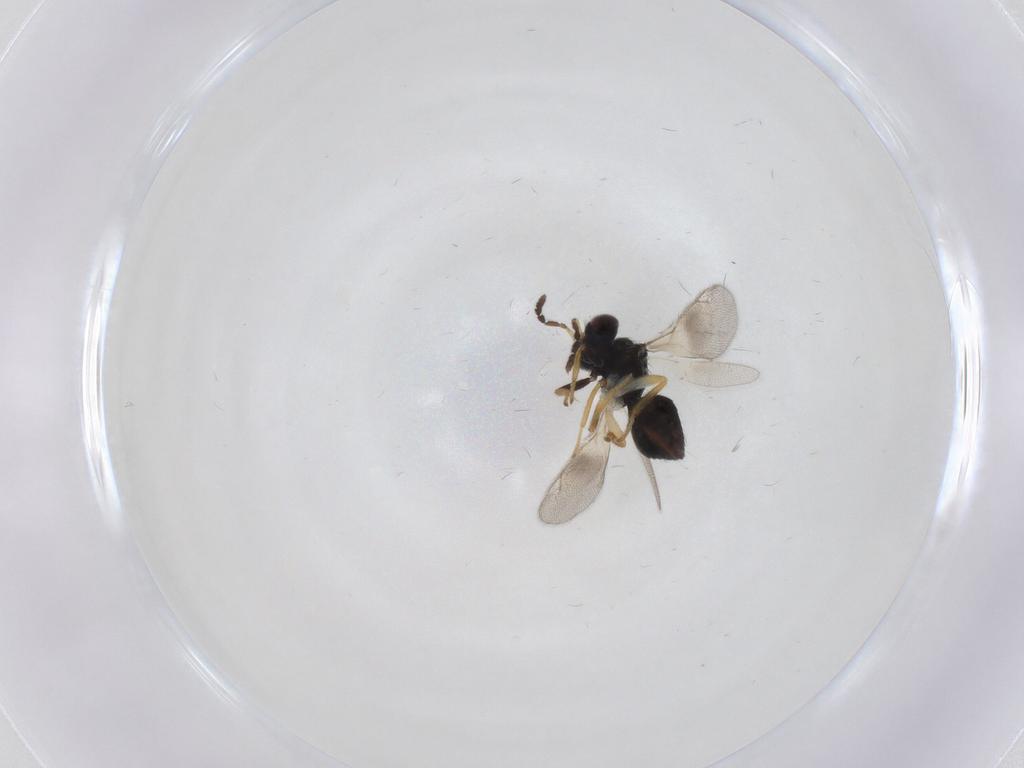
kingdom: Animalia
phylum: Arthropoda
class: Insecta
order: Hymenoptera
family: Eulophidae
